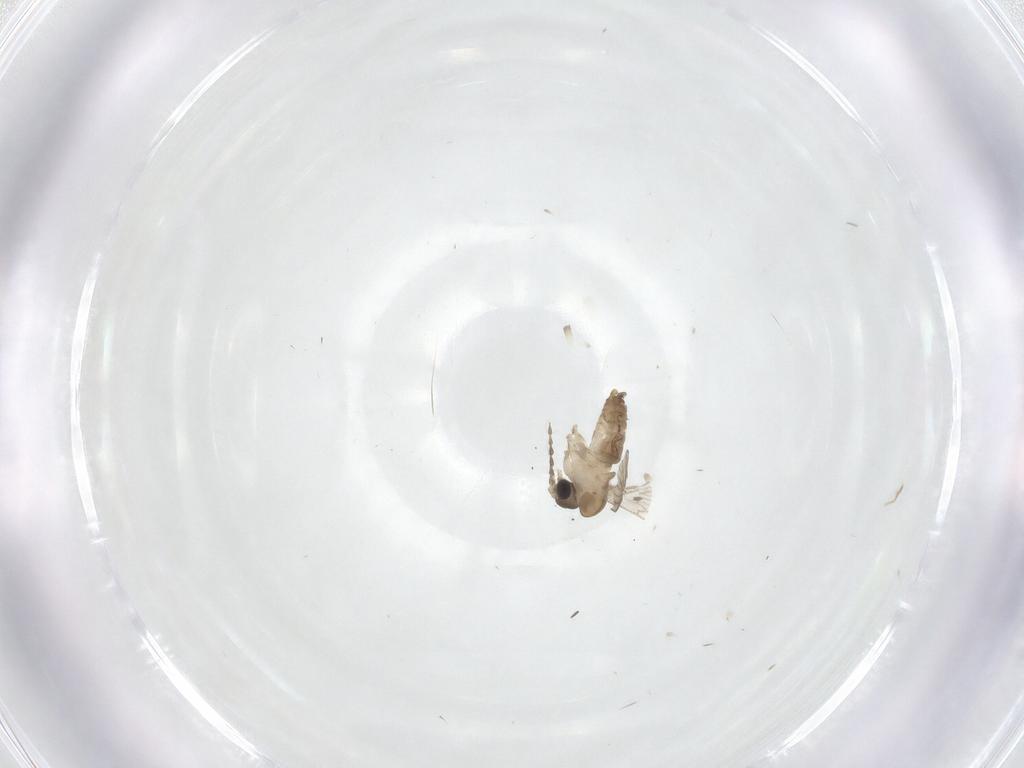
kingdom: Animalia
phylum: Arthropoda
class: Insecta
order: Diptera
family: Psychodidae
